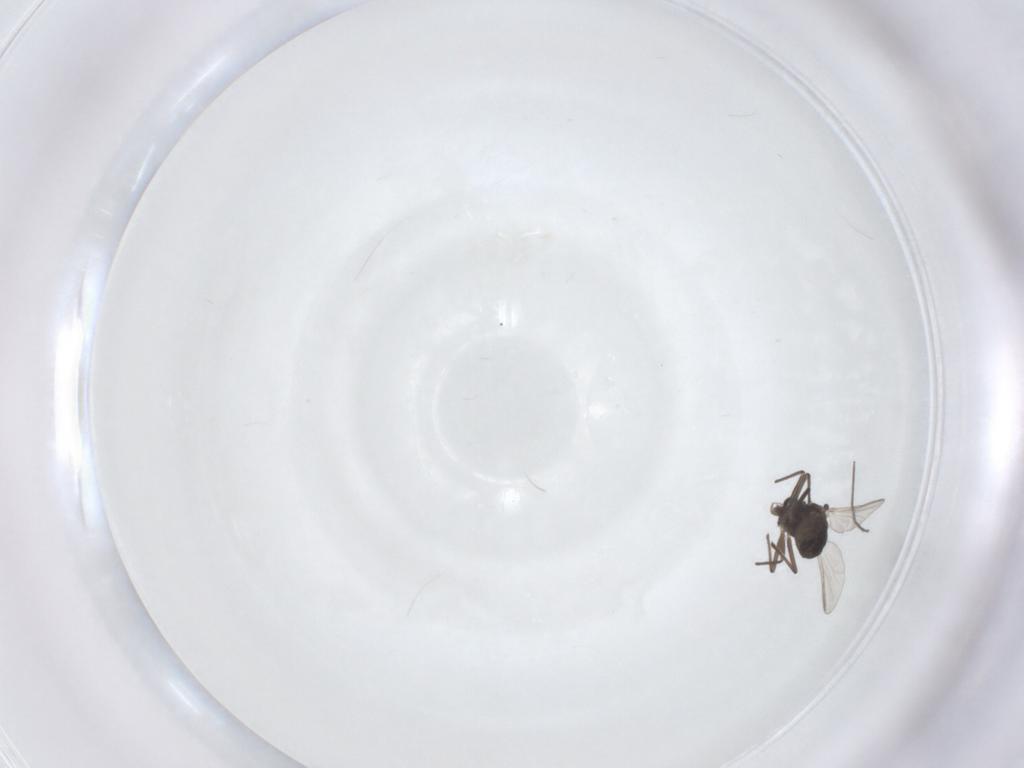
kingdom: Animalia
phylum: Arthropoda
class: Insecta
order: Diptera
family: Chironomidae
